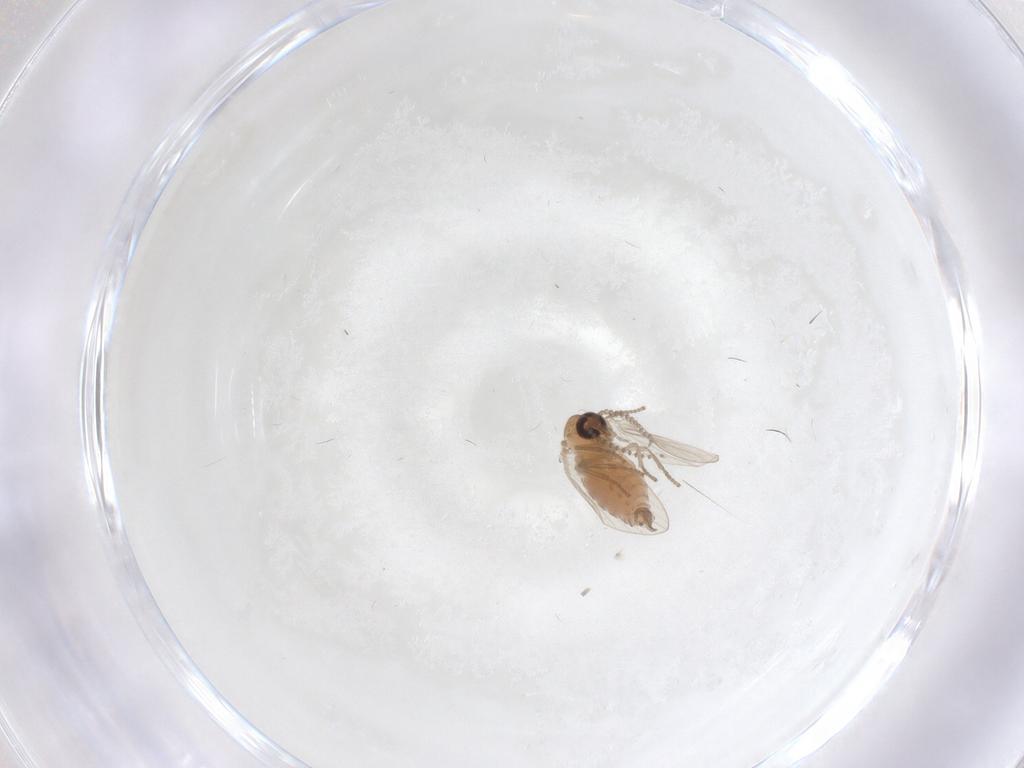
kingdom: Animalia
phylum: Arthropoda
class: Insecta
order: Diptera
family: Psychodidae
